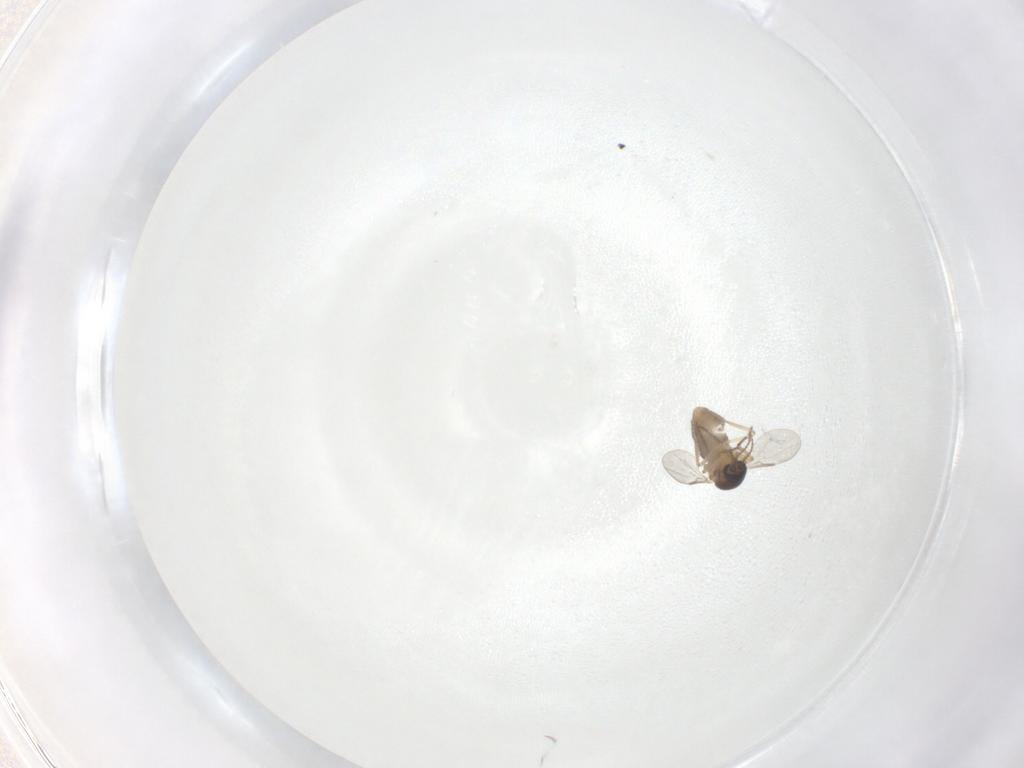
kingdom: Animalia
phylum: Arthropoda
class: Insecta
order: Diptera
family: Ceratopogonidae
